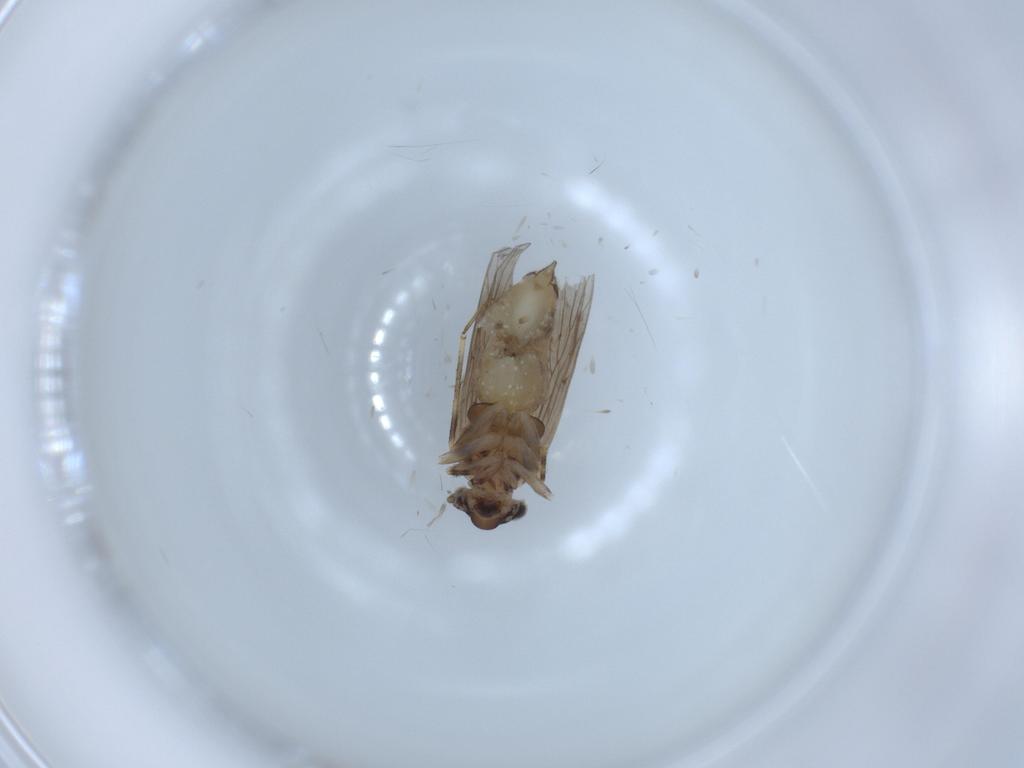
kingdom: Animalia
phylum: Arthropoda
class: Insecta
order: Psocodea
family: Lepidopsocidae
